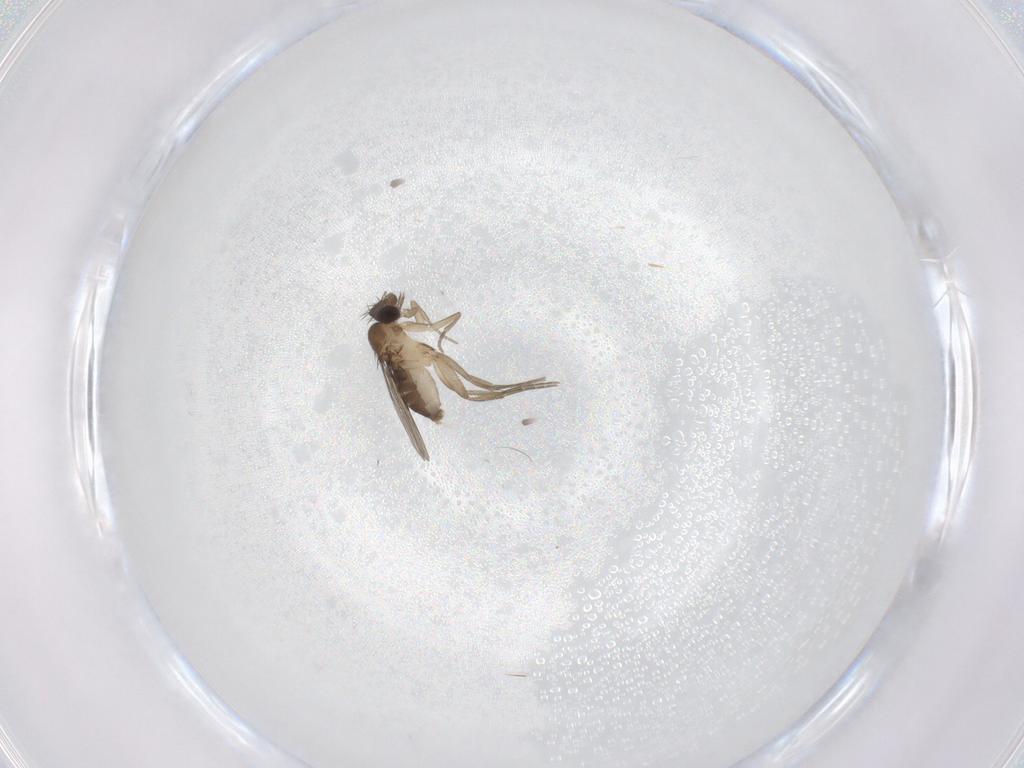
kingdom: Animalia
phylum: Arthropoda
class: Insecta
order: Diptera
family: Phoridae
